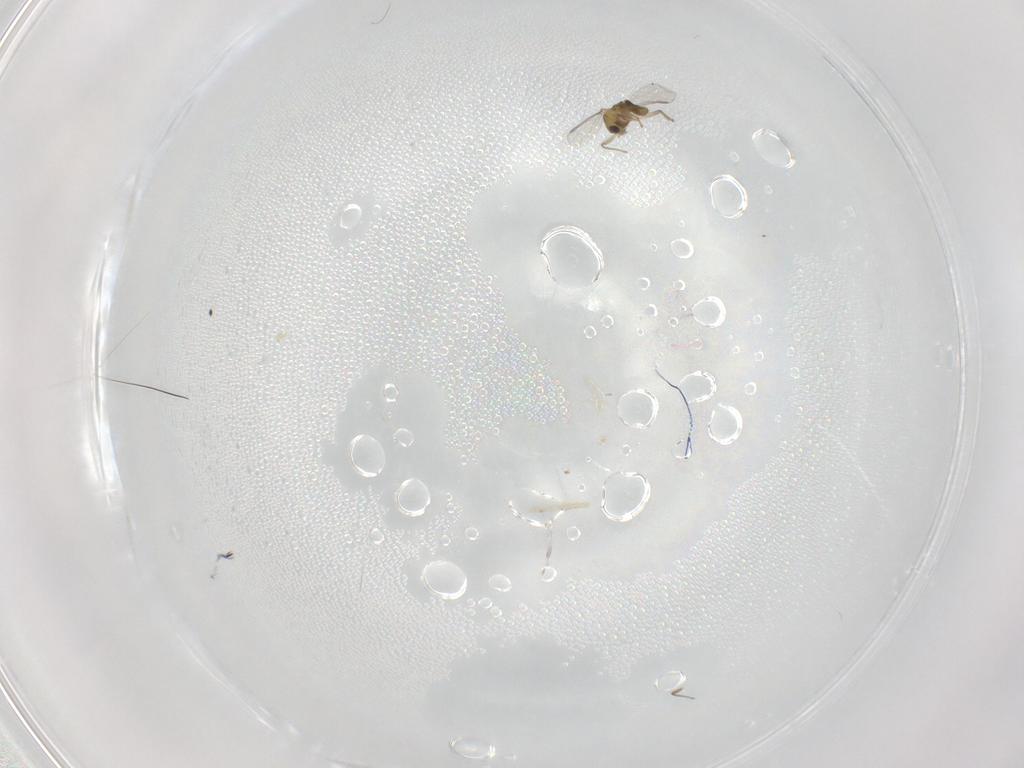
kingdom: Animalia
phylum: Arthropoda
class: Insecta
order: Diptera
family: Chironomidae
